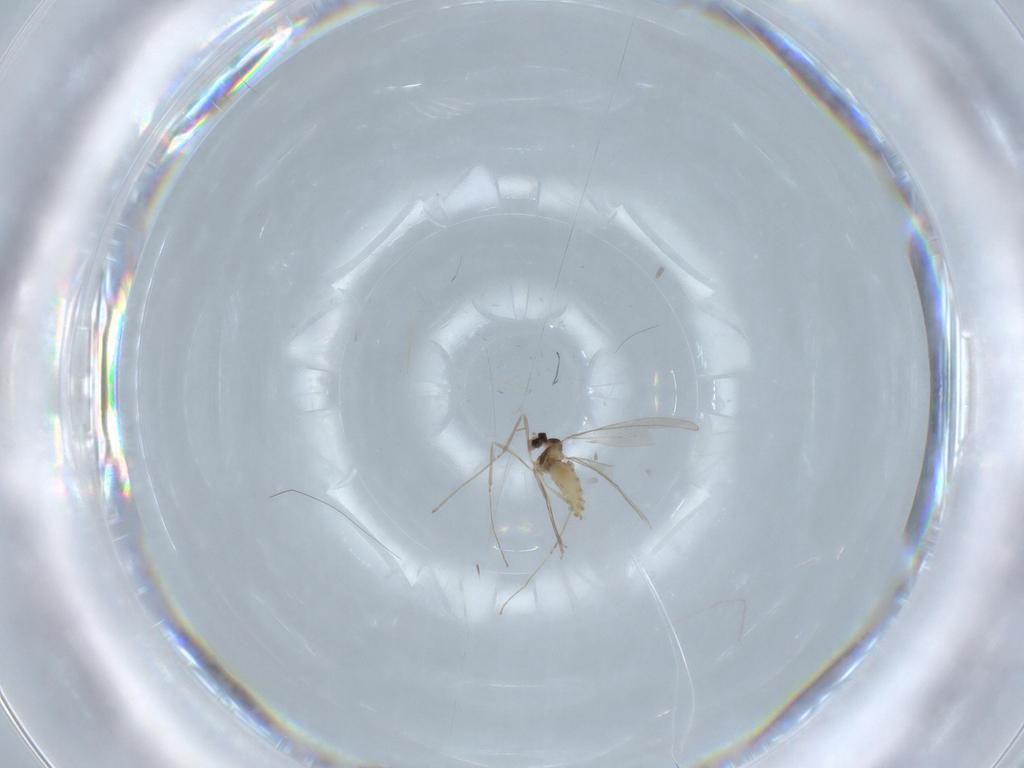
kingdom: Animalia
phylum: Arthropoda
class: Insecta
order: Diptera
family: Cecidomyiidae
